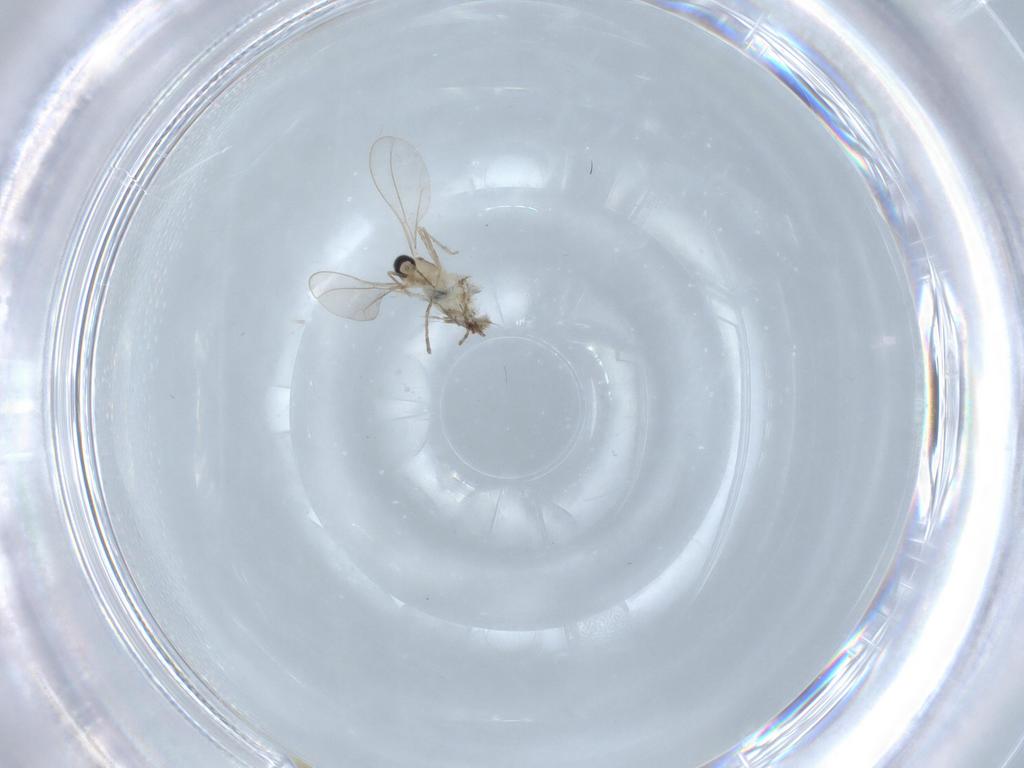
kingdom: Animalia
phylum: Arthropoda
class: Insecta
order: Diptera
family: Cecidomyiidae
